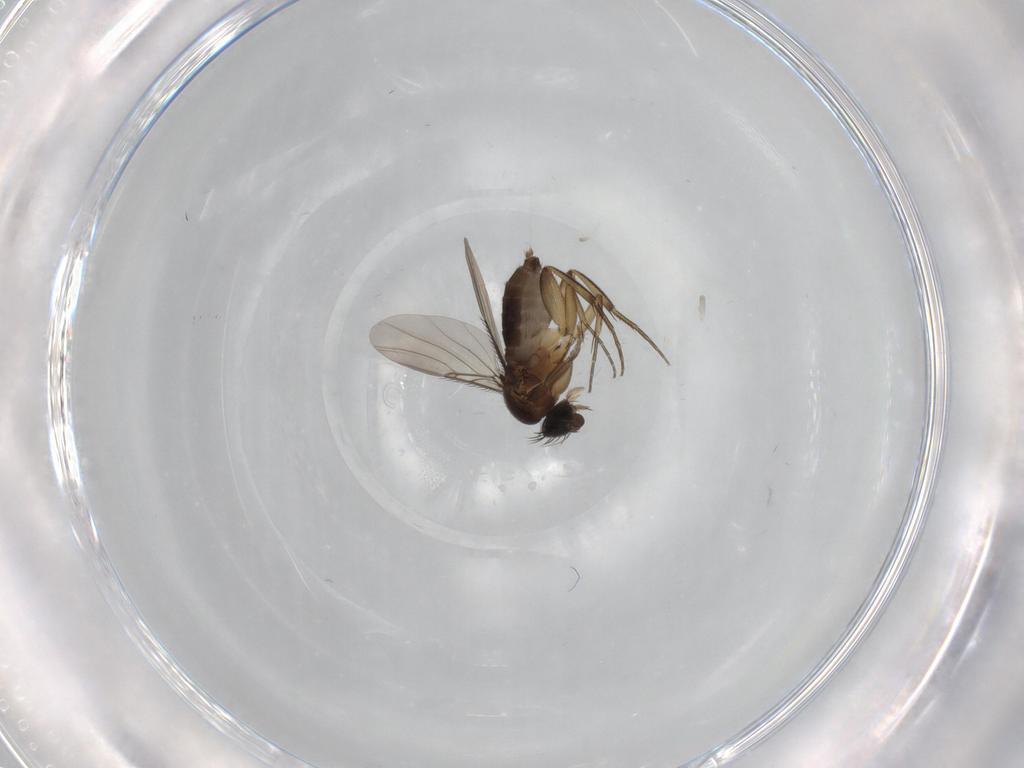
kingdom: Animalia
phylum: Arthropoda
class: Insecta
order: Diptera
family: Phoridae
